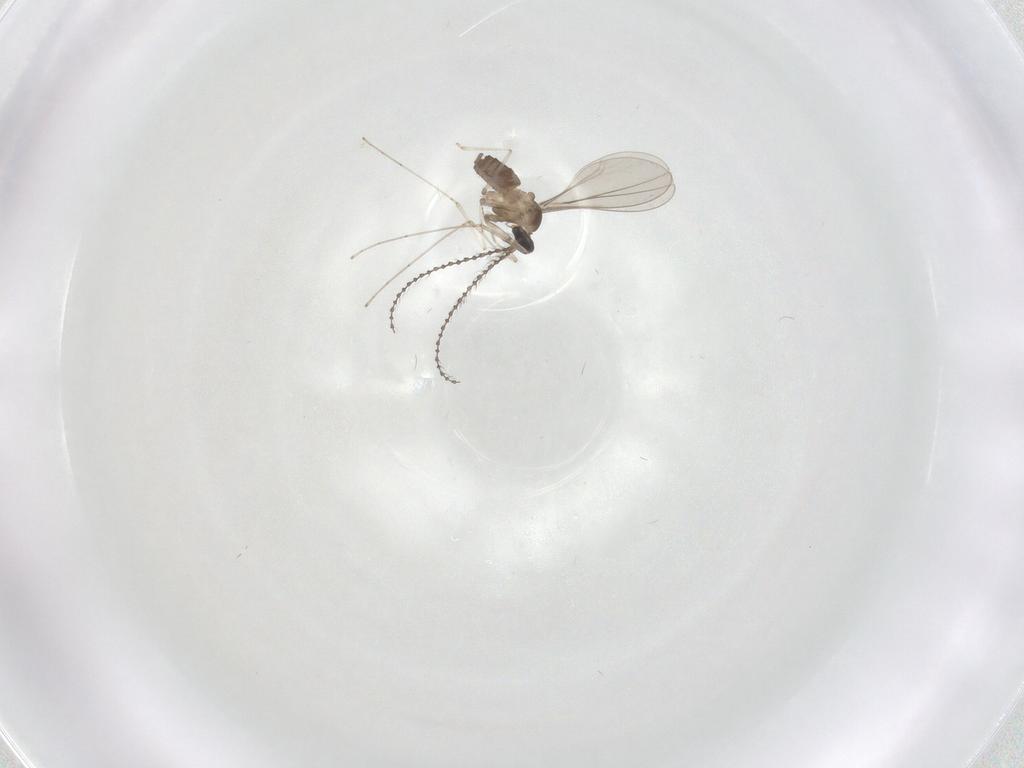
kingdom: Animalia
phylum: Arthropoda
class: Insecta
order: Diptera
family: Cecidomyiidae
